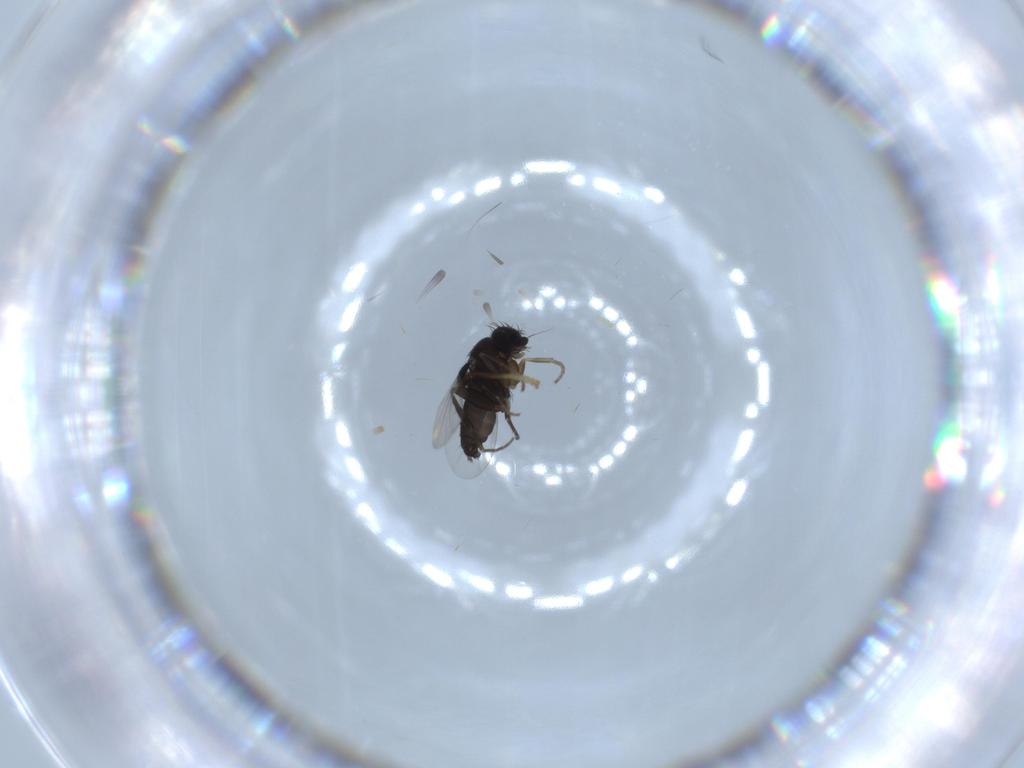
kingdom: Animalia
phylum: Arthropoda
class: Insecta
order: Diptera
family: Phoridae
